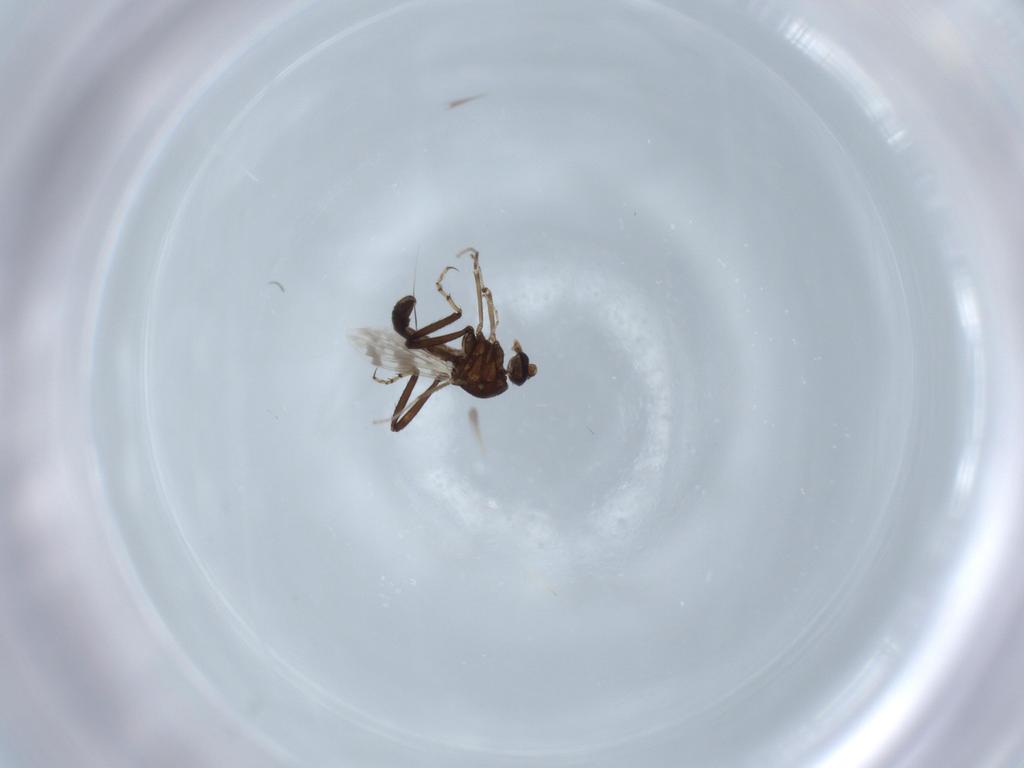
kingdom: Animalia
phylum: Arthropoda
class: Insecta
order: Diptera
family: Ceratopogonidae
